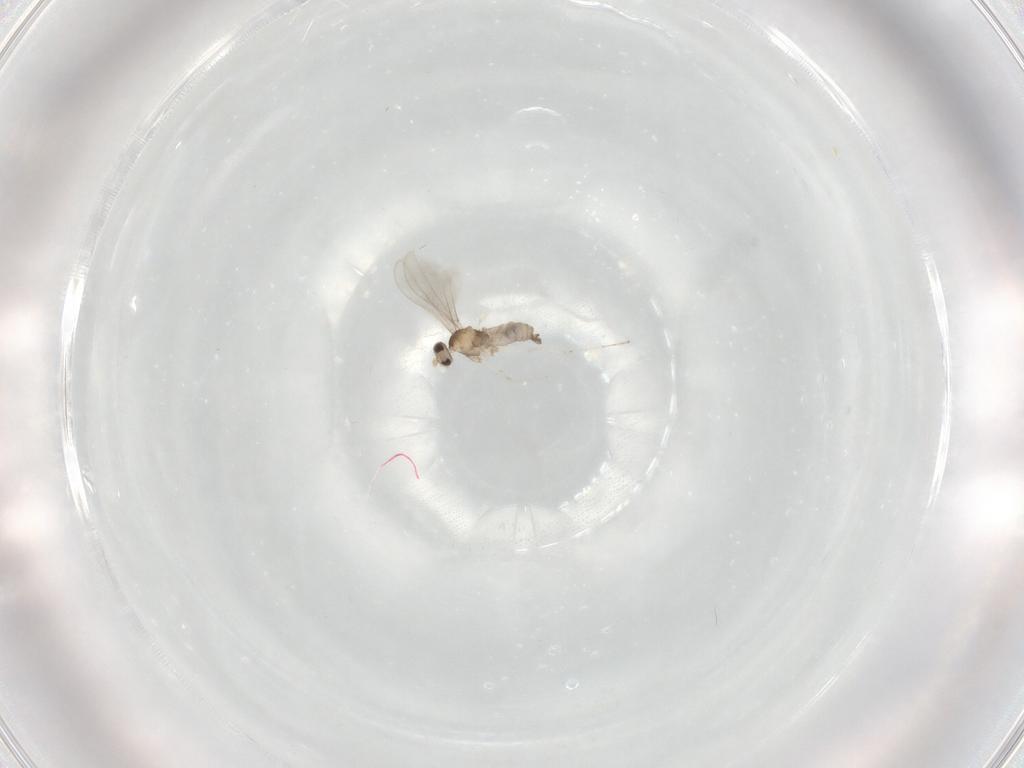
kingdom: Animalia
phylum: Arthropoda
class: Insecta
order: Diptera
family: Cecidomyiidae
